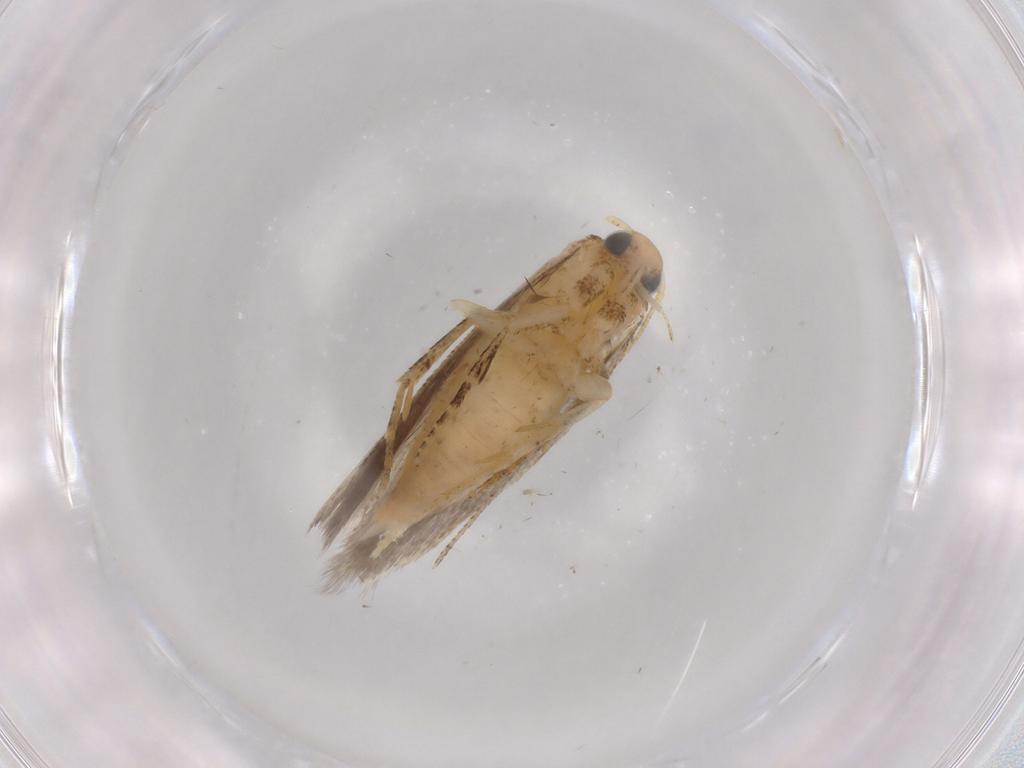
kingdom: Animalia
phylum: Arthropoda
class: Insecta
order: Lepidoptera
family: Gelechiidae
